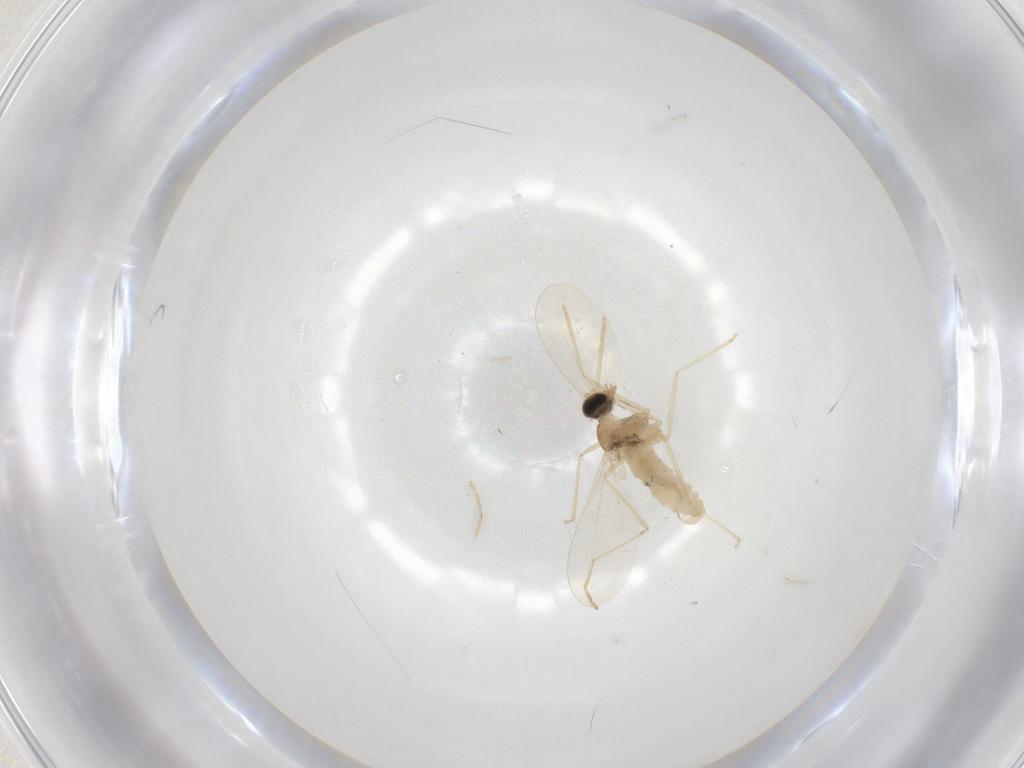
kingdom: Animalia
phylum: Arthropoda
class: Insecta
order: Diptera
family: Cecidomyiidae
